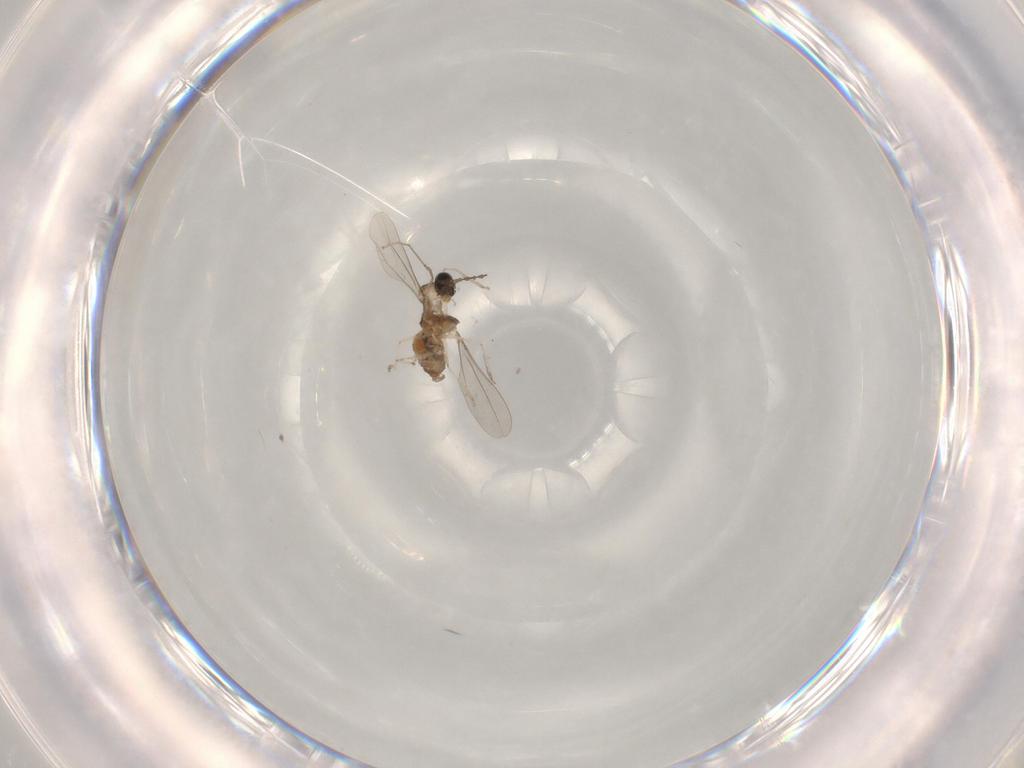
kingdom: Animalia
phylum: Arthropoda
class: Insecta
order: Diptera
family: Cecidomyiidae
